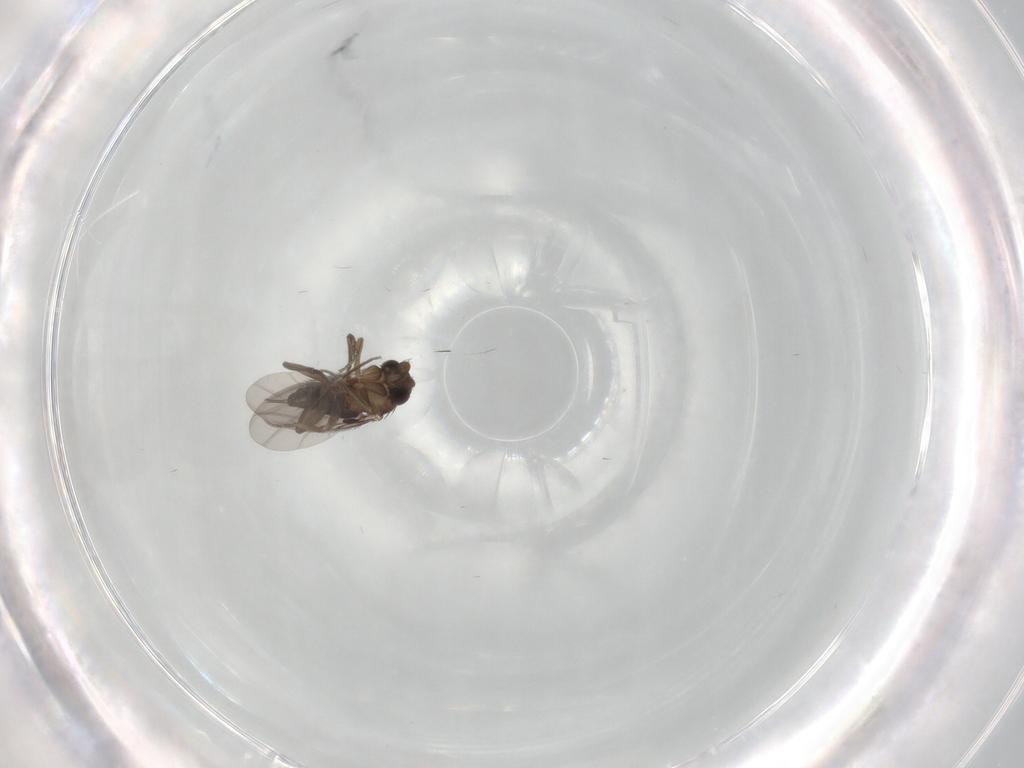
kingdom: Animalia
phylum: Arthropoda
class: Insecta
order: Diptera
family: Phoridae
